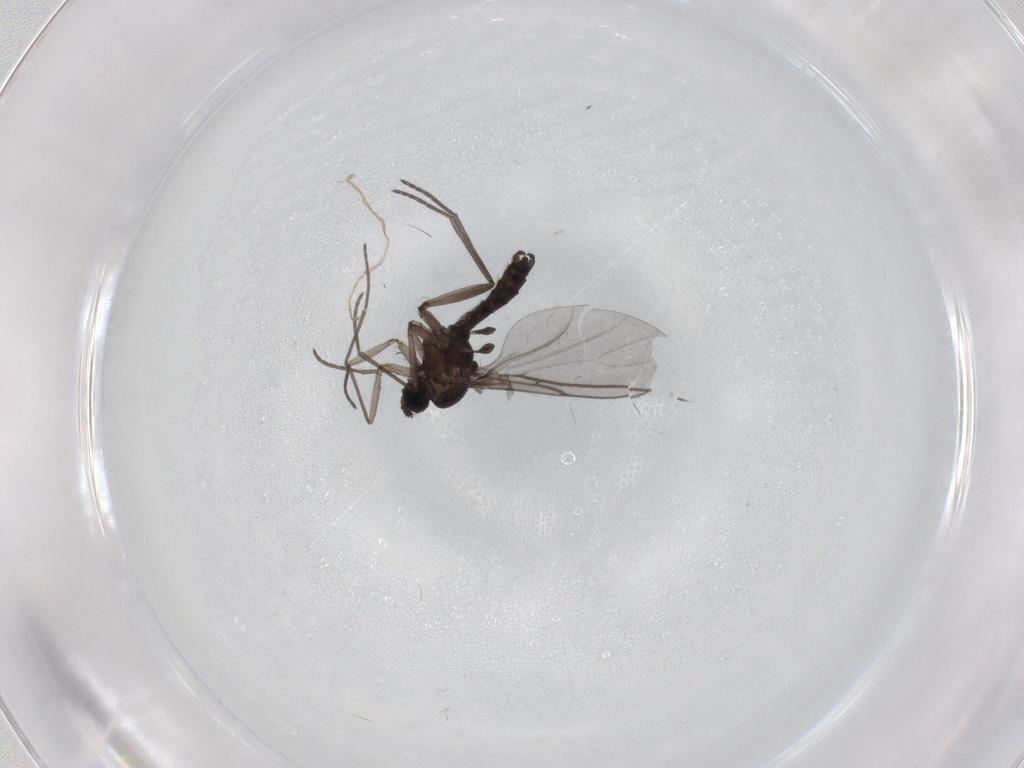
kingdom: Animalia
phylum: Arthropoda
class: Insecta
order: Diptera
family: Sciaridae
